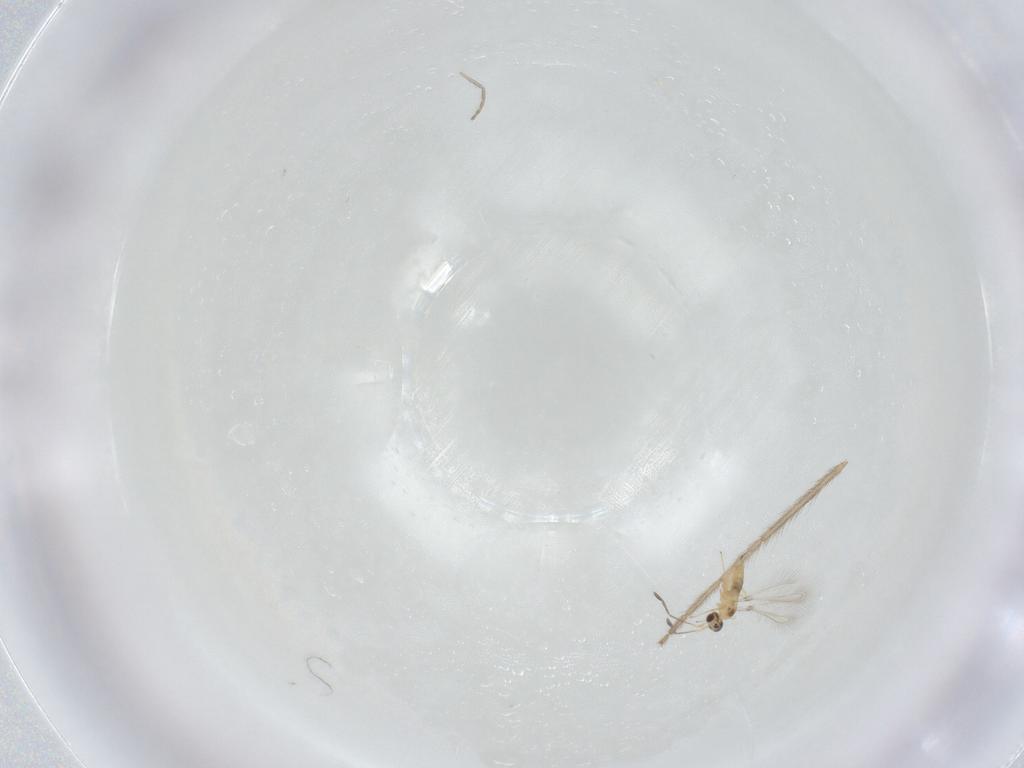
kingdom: Animalia
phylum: Arthropoda
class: Insecta
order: Hymenoptera
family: Mymaridae
